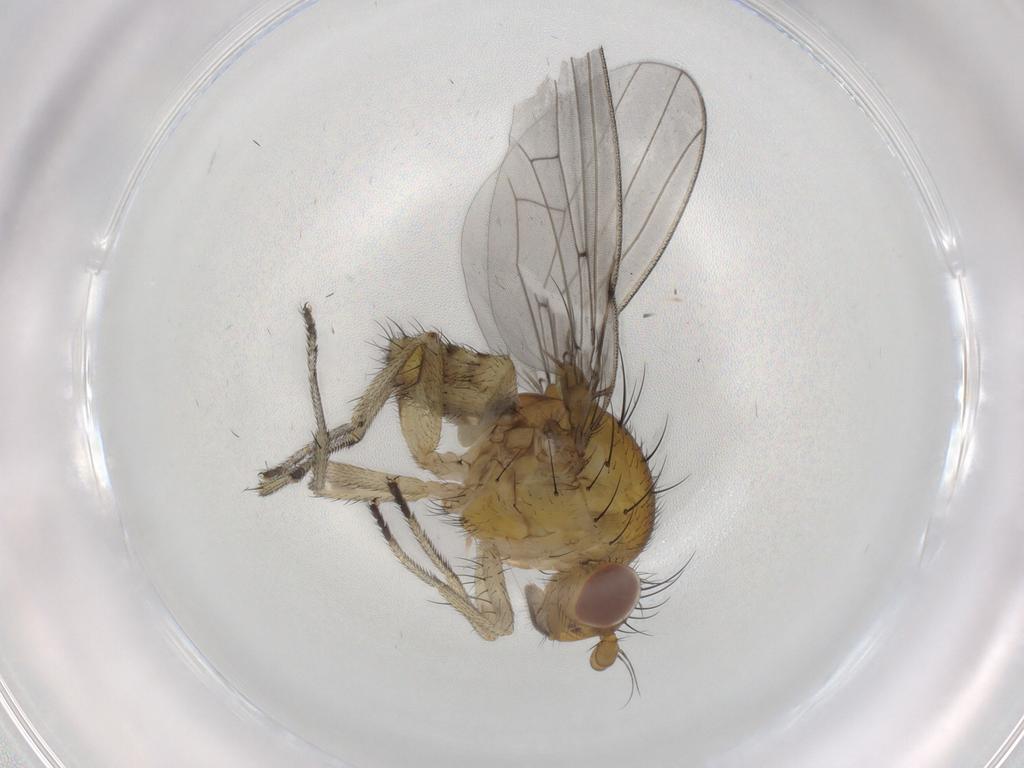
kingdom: Animalia
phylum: Arthropoda
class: Insecta
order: Diptera
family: Lauxaniidae
